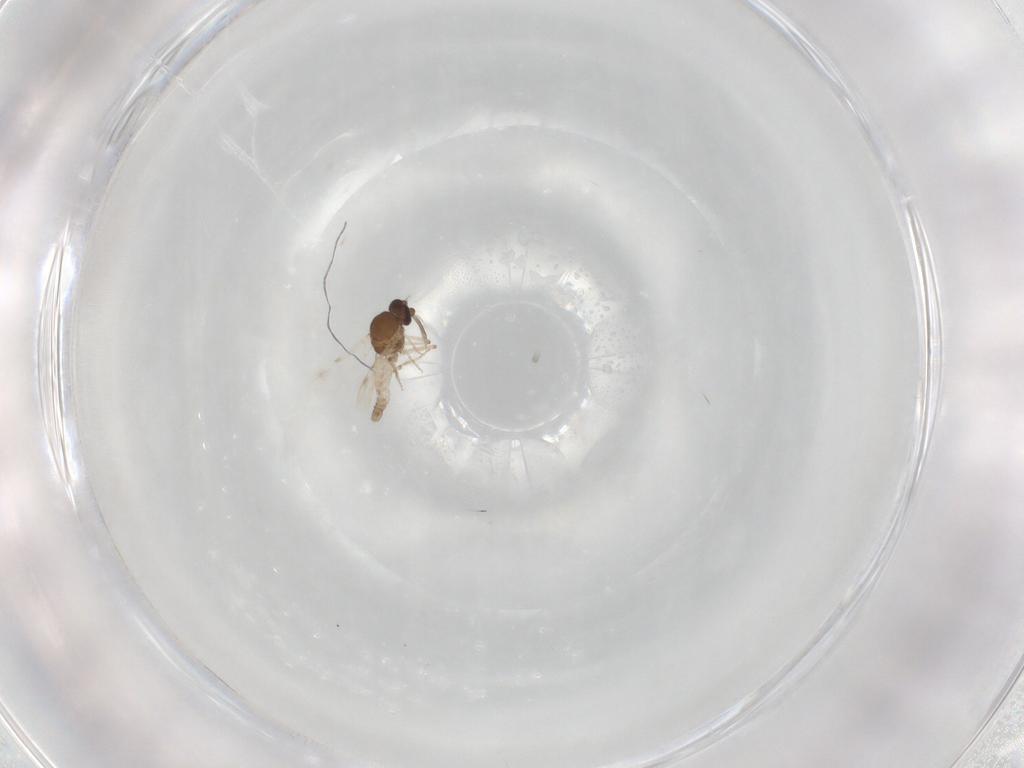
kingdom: Animalia
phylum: Arthropoda
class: Insecta
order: Diptera
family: Ceratopogonidae
